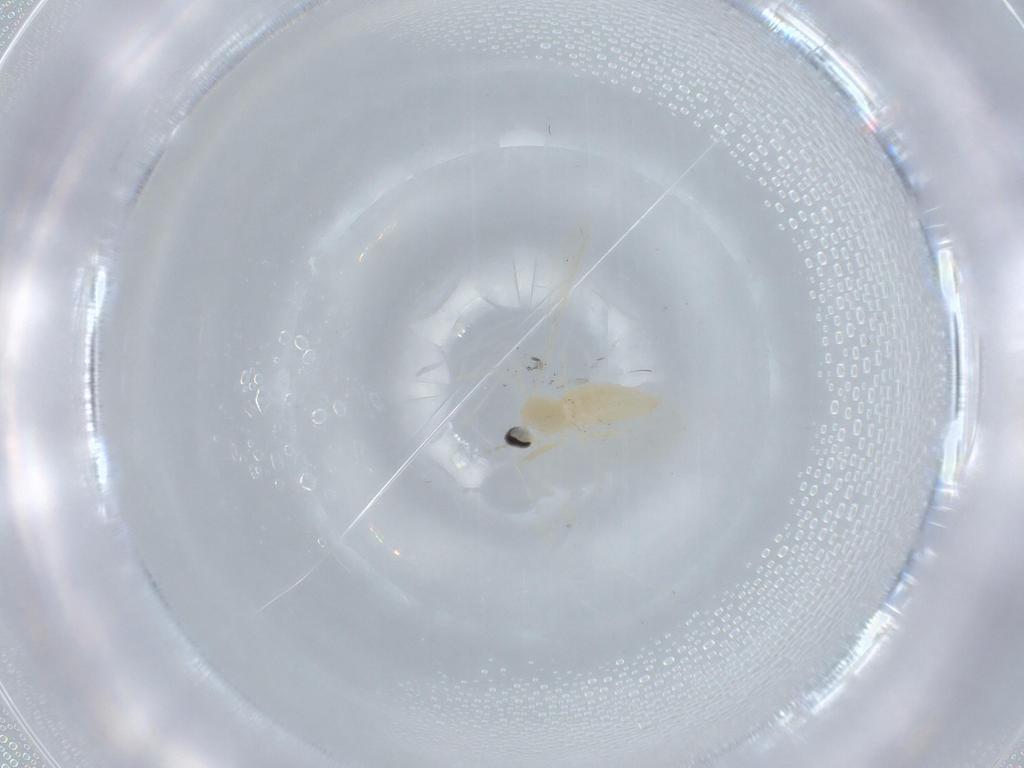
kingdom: Animalia
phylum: Arthropoda
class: Insecta
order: Diptera
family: Cecidomyiidae
